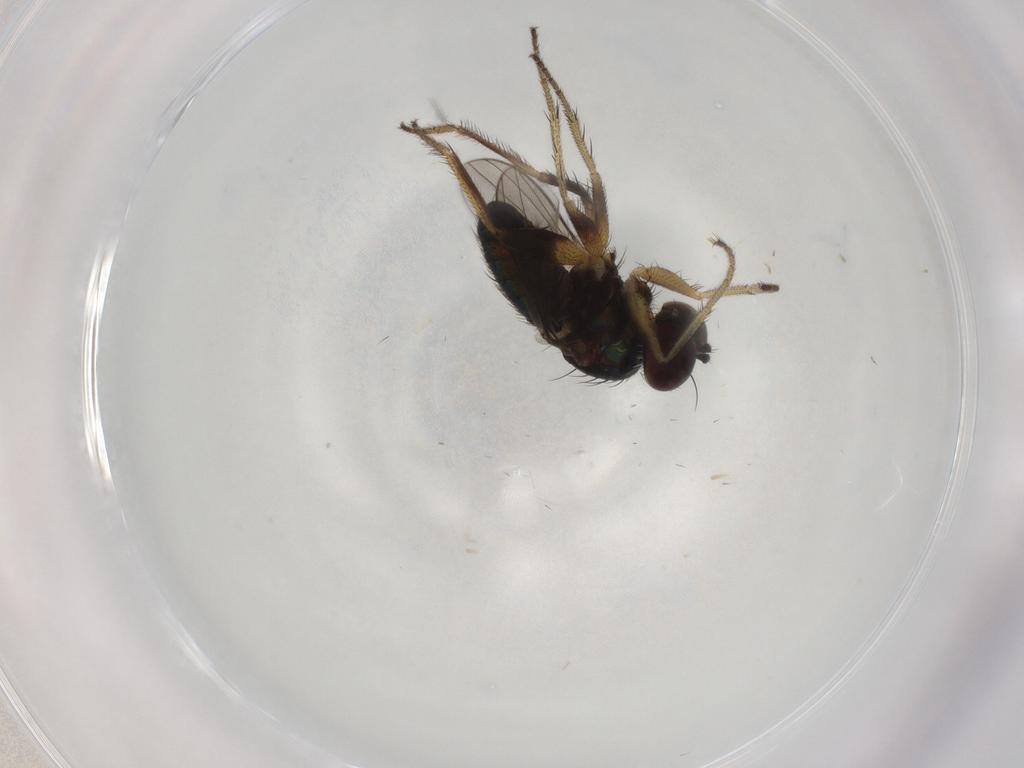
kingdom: Animalia
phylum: Arthropoda
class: Insecta
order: Diptera
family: Dolichopodidae
